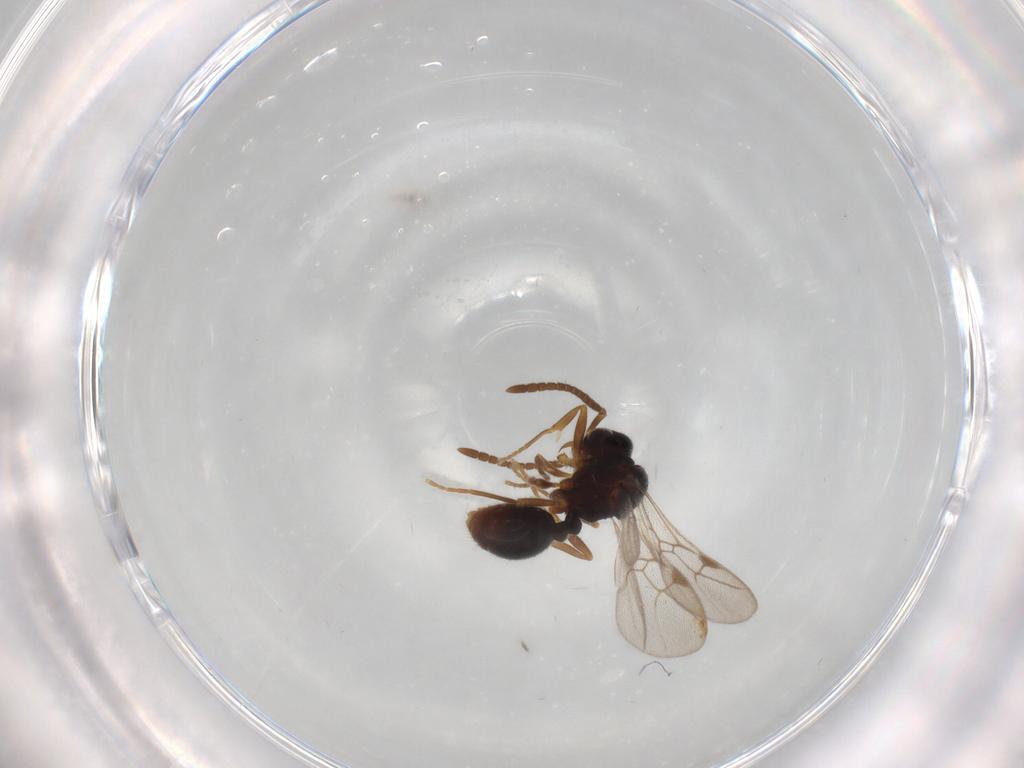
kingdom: Animalia
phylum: Arthropoda
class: Insecta
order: Hymenoptera
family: Formicidae
